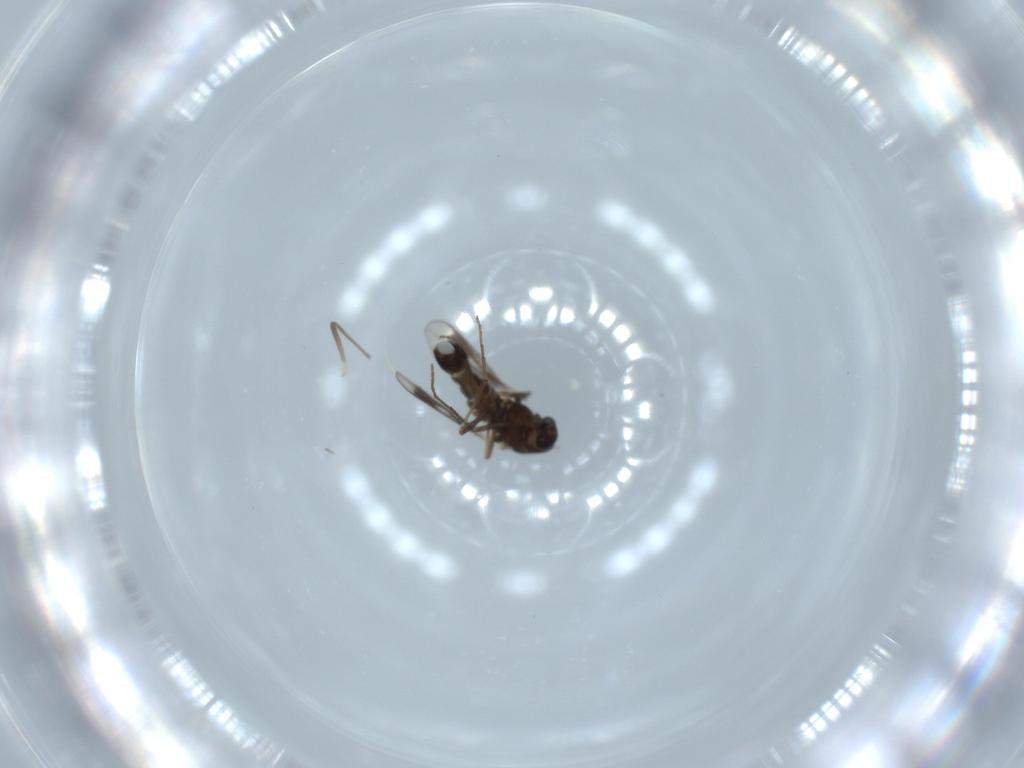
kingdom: Animalia
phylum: Arthropoda
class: Insecta
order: Diptera
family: Chironomidae
